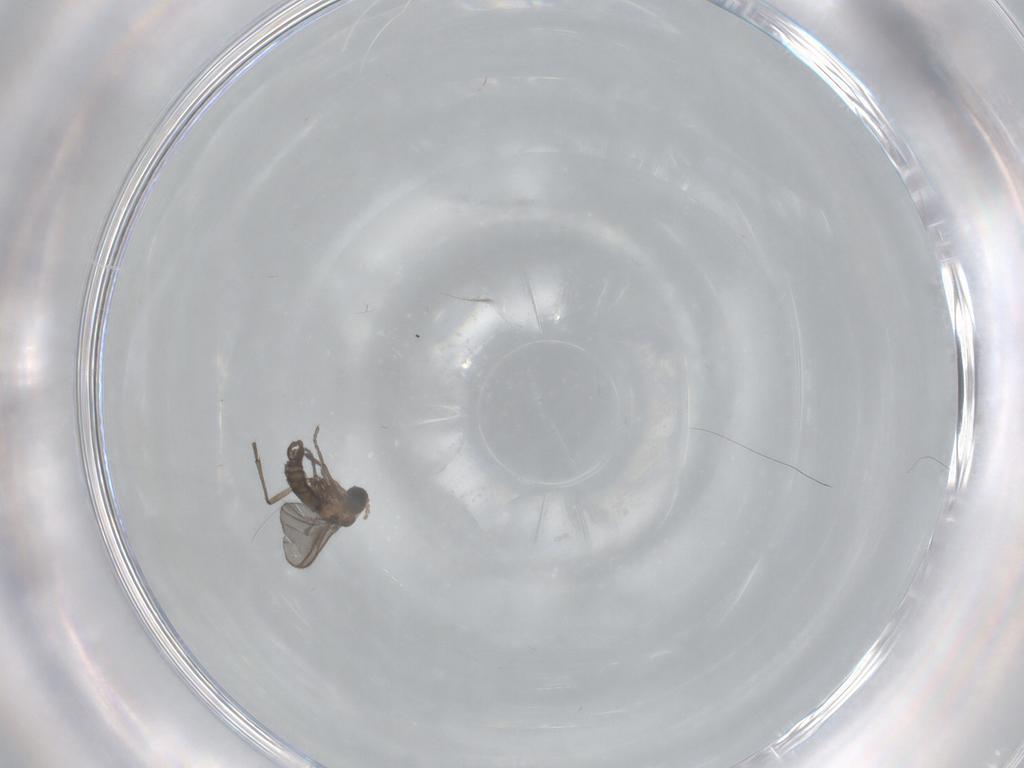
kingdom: Animalia
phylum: Arthropoda
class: Insecta
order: Diptera
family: Sciaridae
